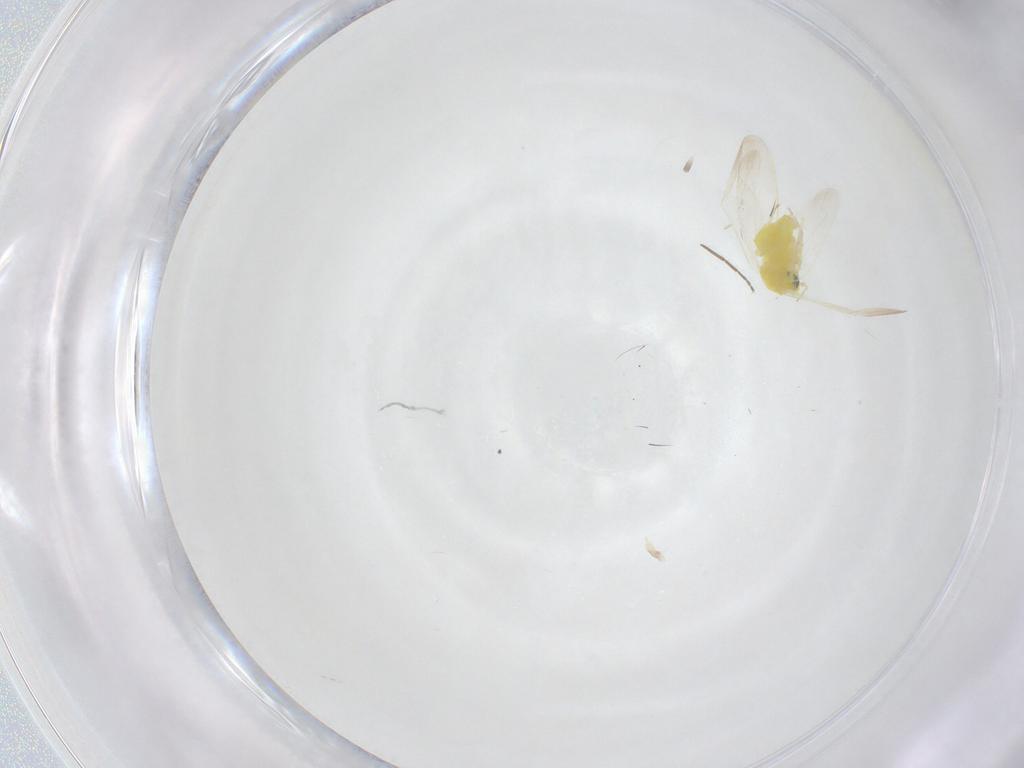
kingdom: Animalia
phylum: Arthropoda
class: Insecta
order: Hemiptera
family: Aleyrodidae
